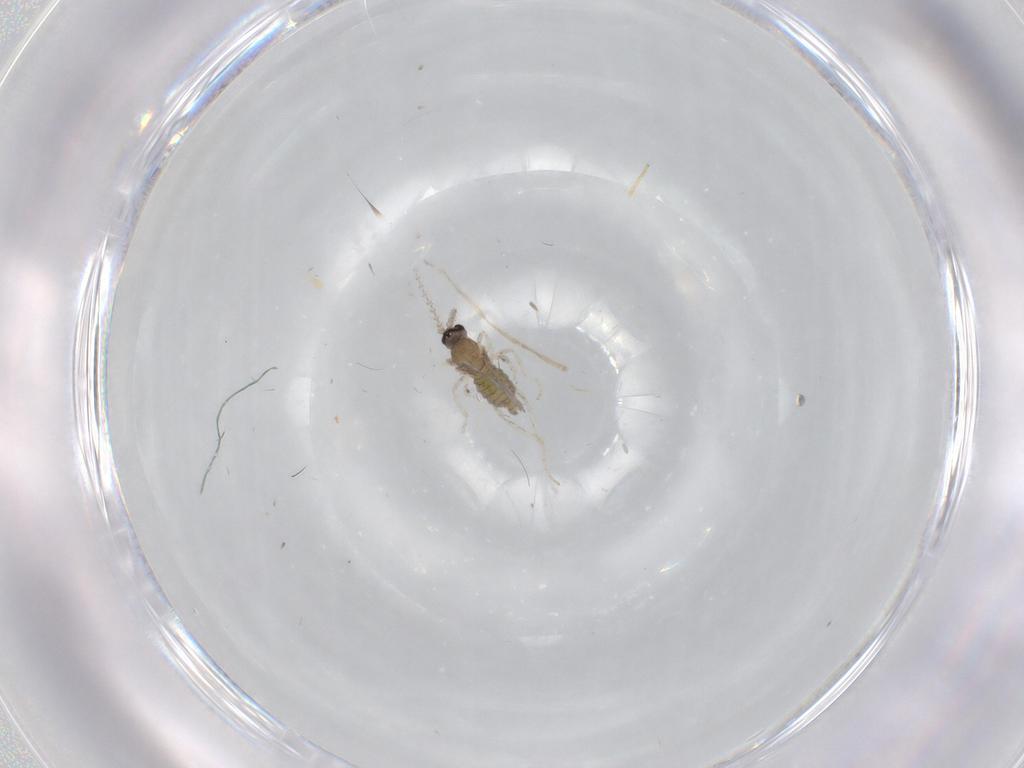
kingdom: Animalia
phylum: Arthropoda
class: Insecta
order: Diptera
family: Cecidomyiidae
